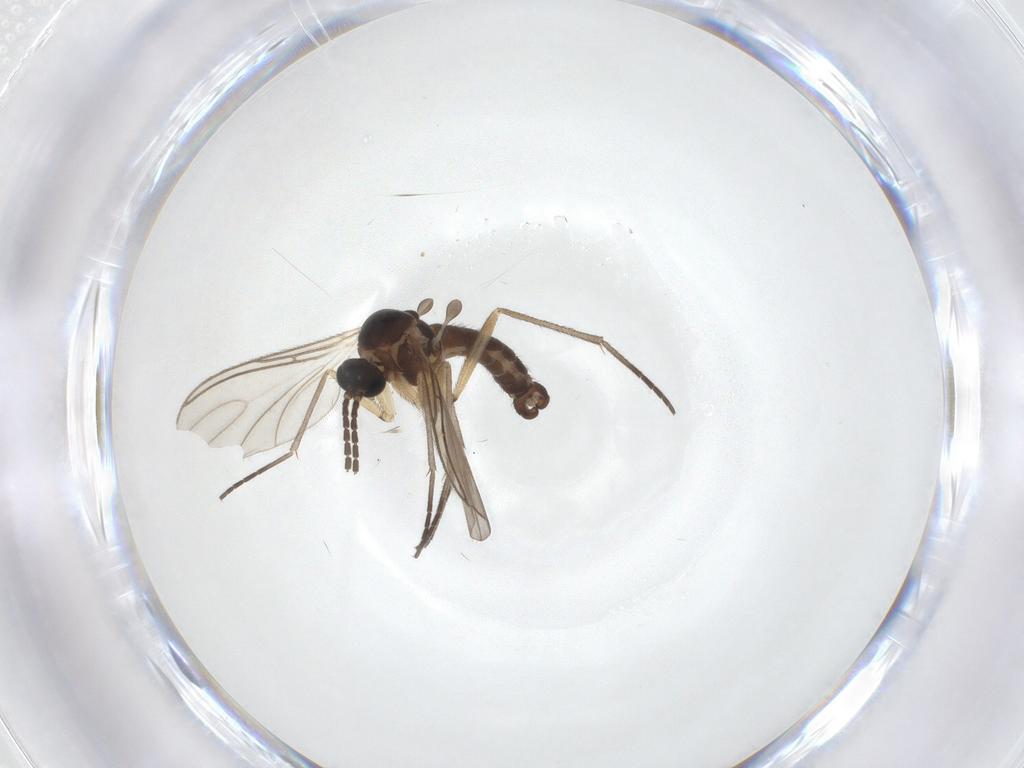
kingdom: Animalia
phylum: Arthropoda
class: Insecta
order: Diptera
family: Sciaridae
